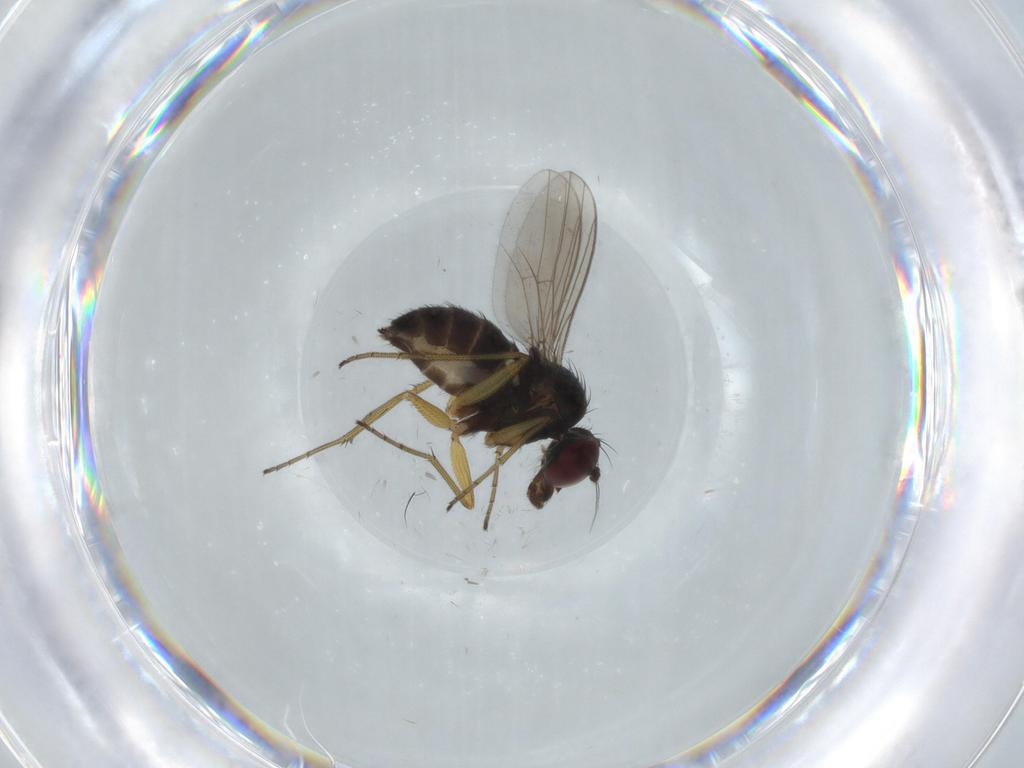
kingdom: Animalia
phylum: Arthropoda
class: Insecta
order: Diptera
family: Dolichopodidae
